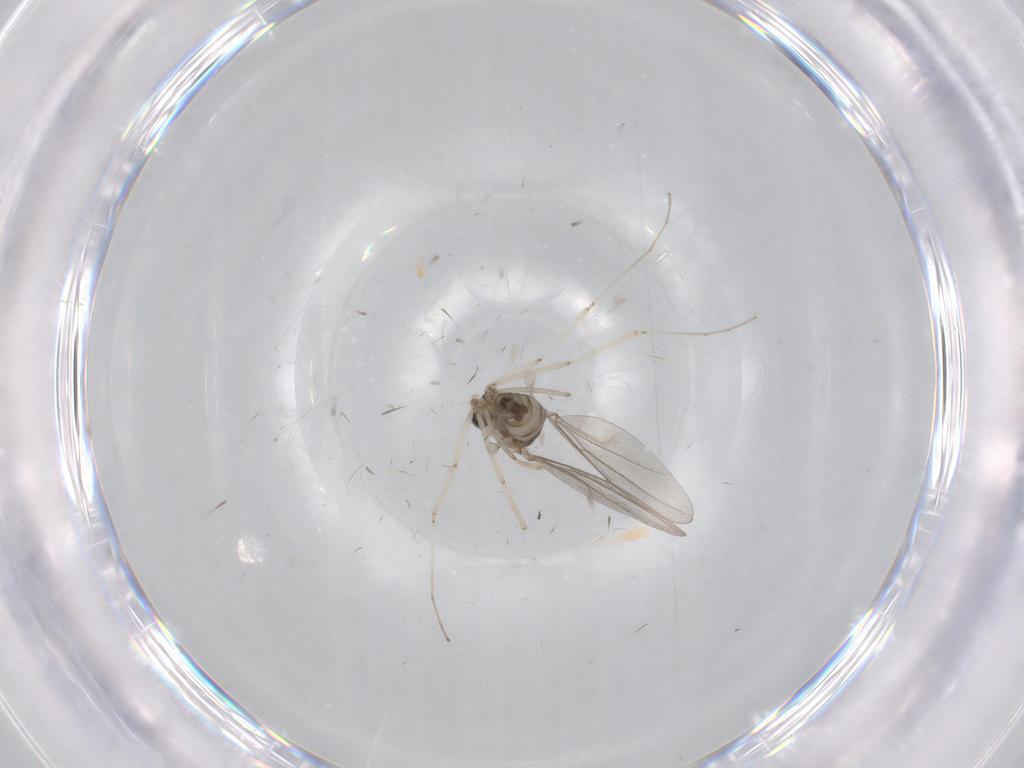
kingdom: Animalia
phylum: Arthropoda
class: Insecta
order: Diptera
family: Cecidomyiidae
